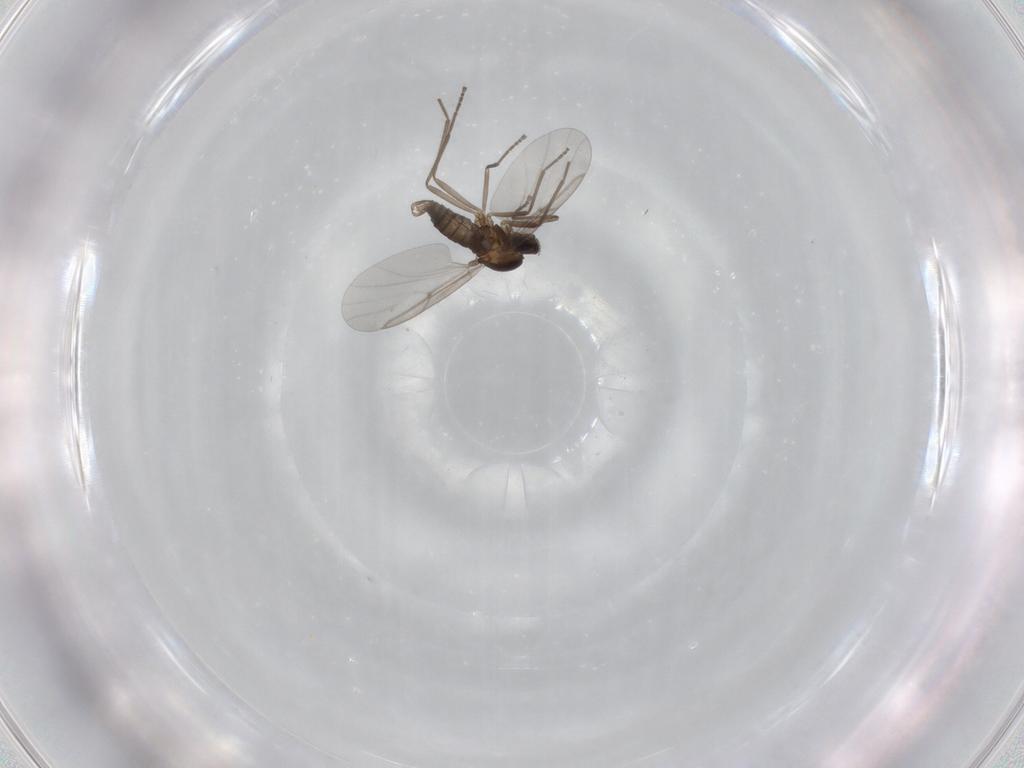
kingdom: Animalia
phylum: Arthropoda
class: Insecta
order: Diptera
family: Cecidomyiidae
